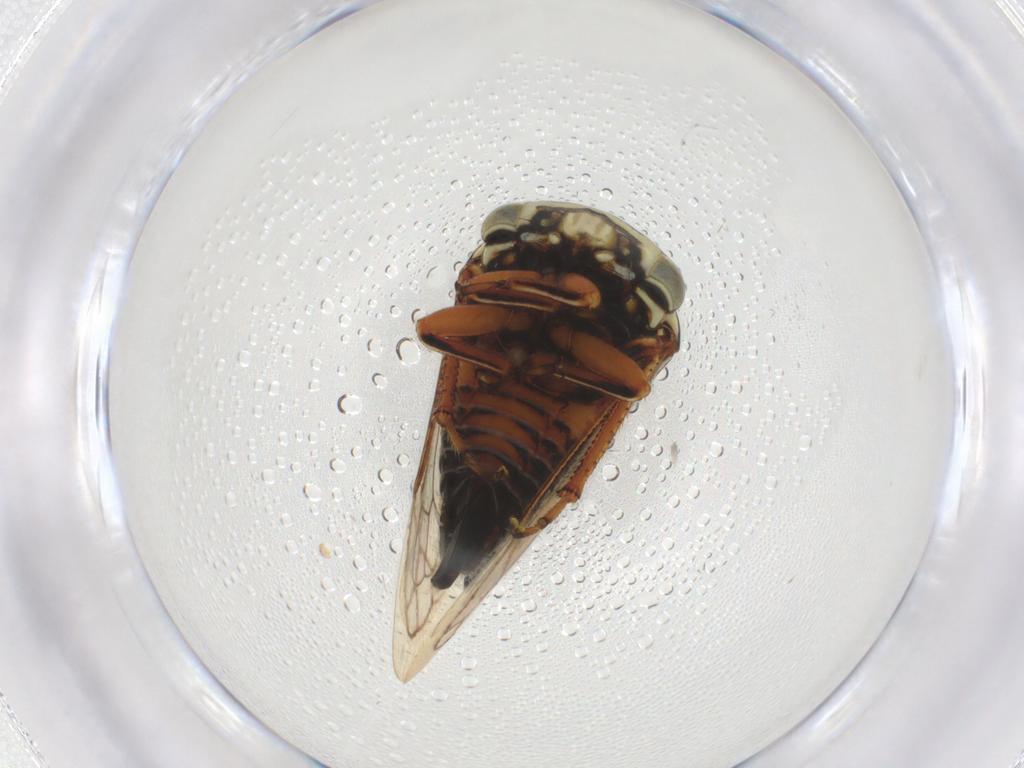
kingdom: Animalia
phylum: Arthropoda
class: Insecta
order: Hemiptera
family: Membracidae
